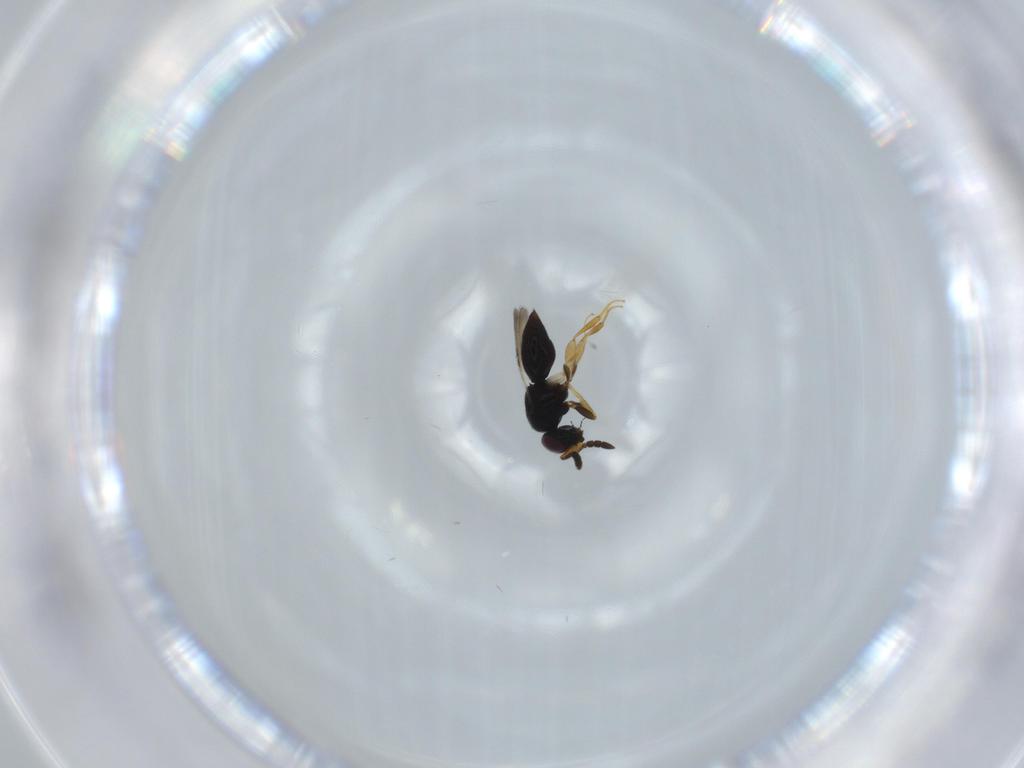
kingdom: Animalia
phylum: Arthropoda
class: Insecta
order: Hymenoptera
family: Ceraphronidae
